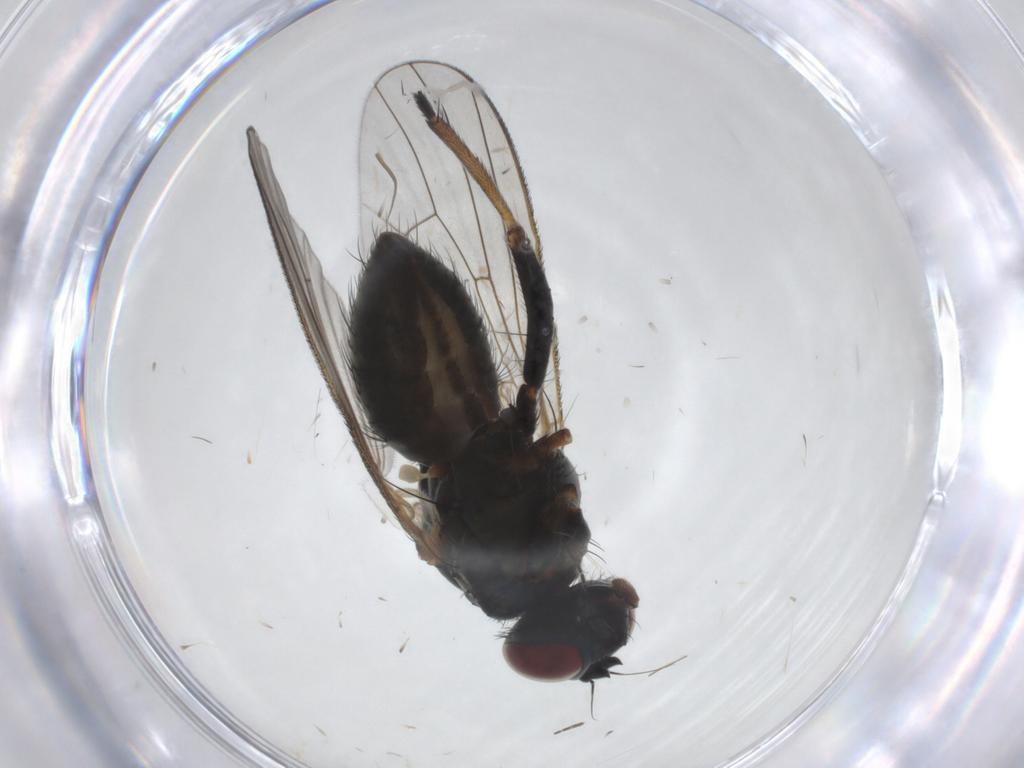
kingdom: Animalia
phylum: Arthropoda
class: Insecta
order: Diptera
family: Muscidae
